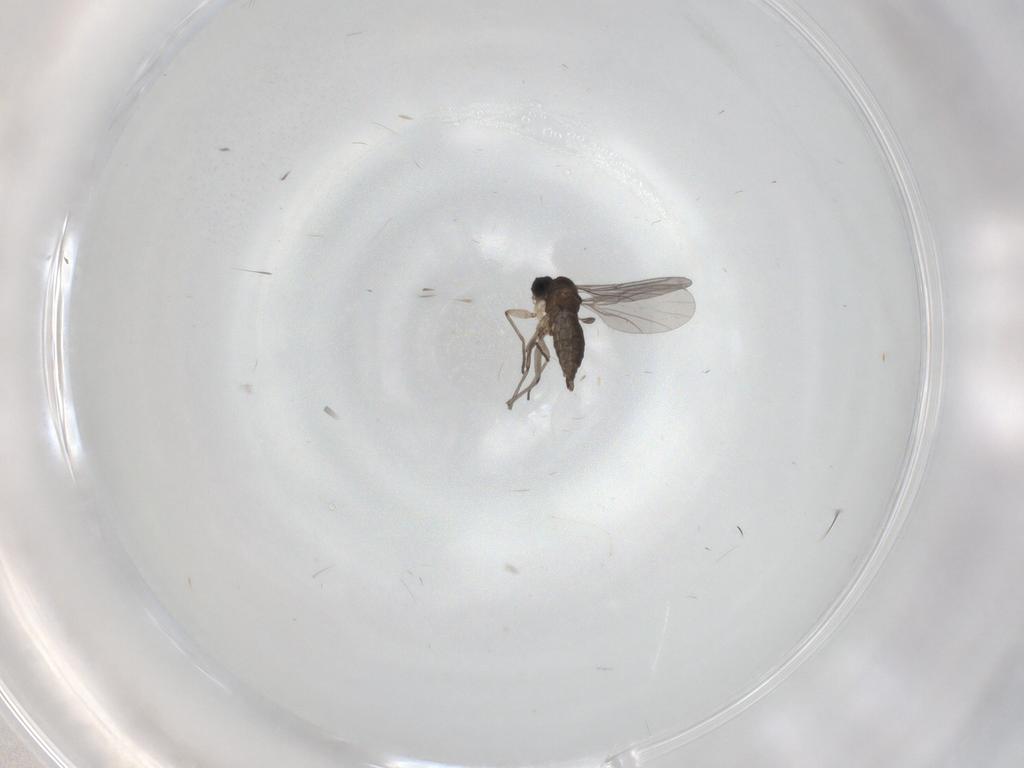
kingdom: Animalia
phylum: Arthropoda
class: Insecta
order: Diptera
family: Sciaridae
